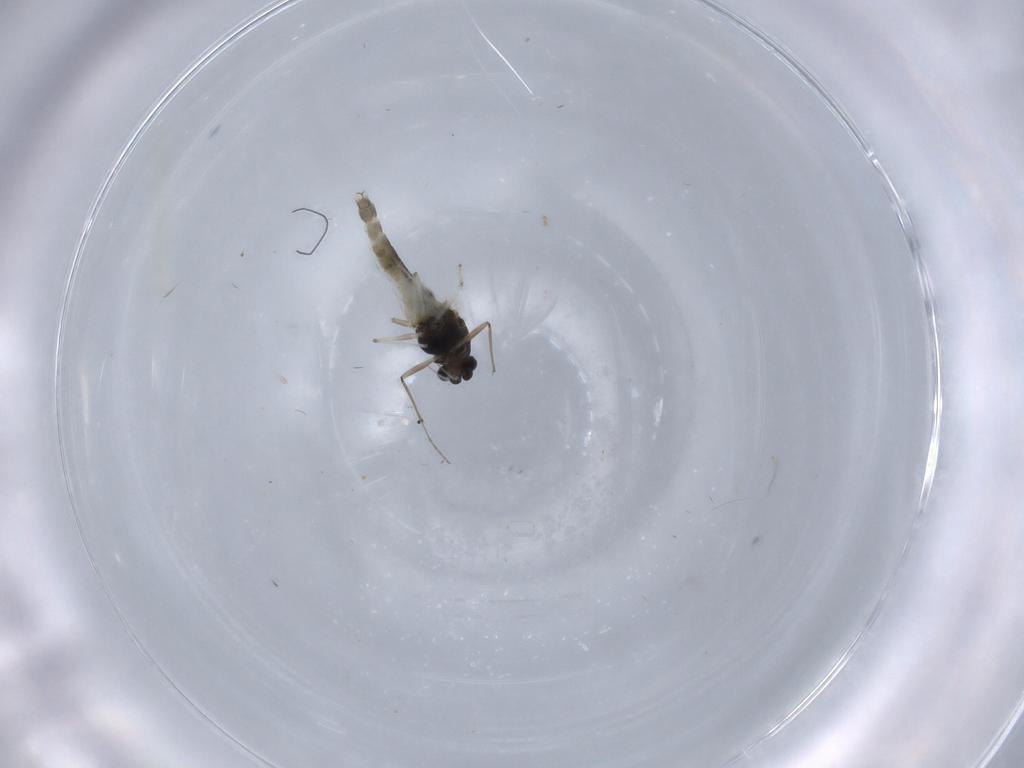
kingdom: Animalia
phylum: Arthropoda
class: Insecta
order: Diptera
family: Chironomidae
